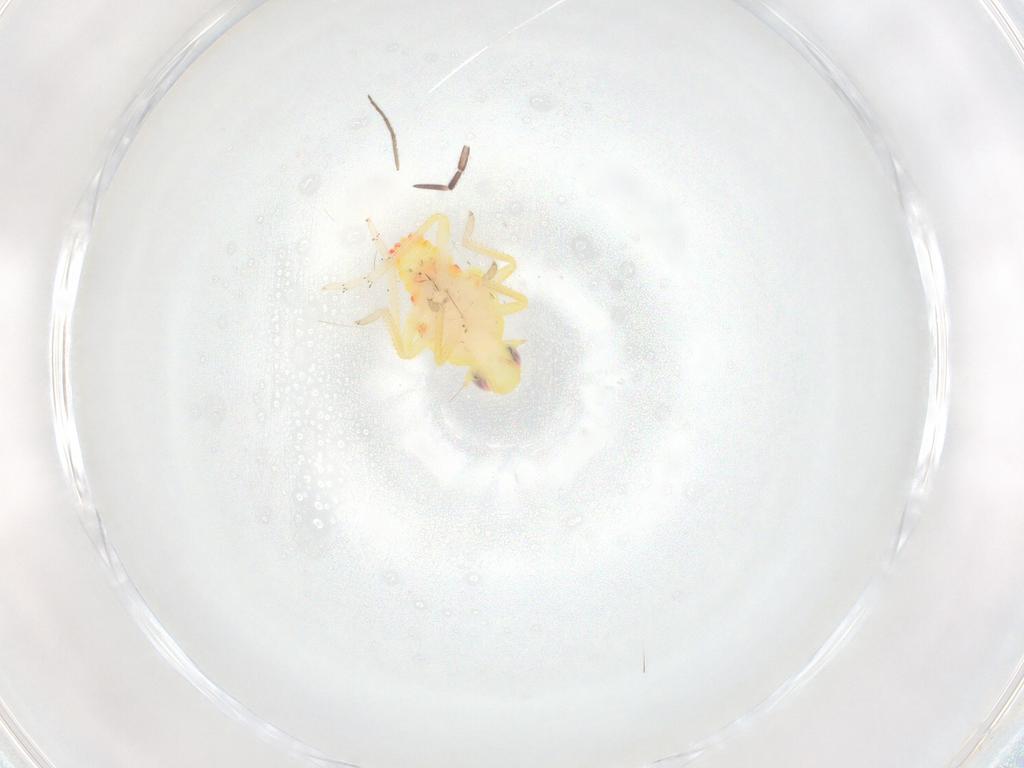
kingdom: Animalia
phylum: Arthropoda
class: Insecta
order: Hemiptera
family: Tropiduchidae
